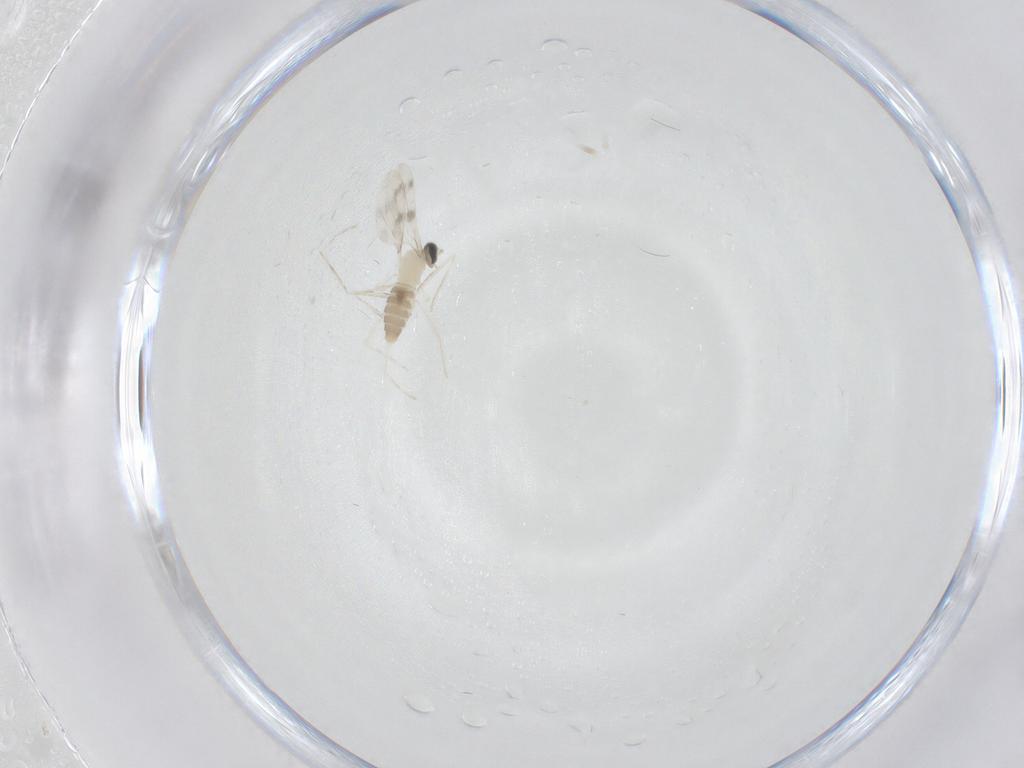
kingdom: Animalia
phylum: Arthropoda
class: Insecta
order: Diptera
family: Cecidomyiidae
